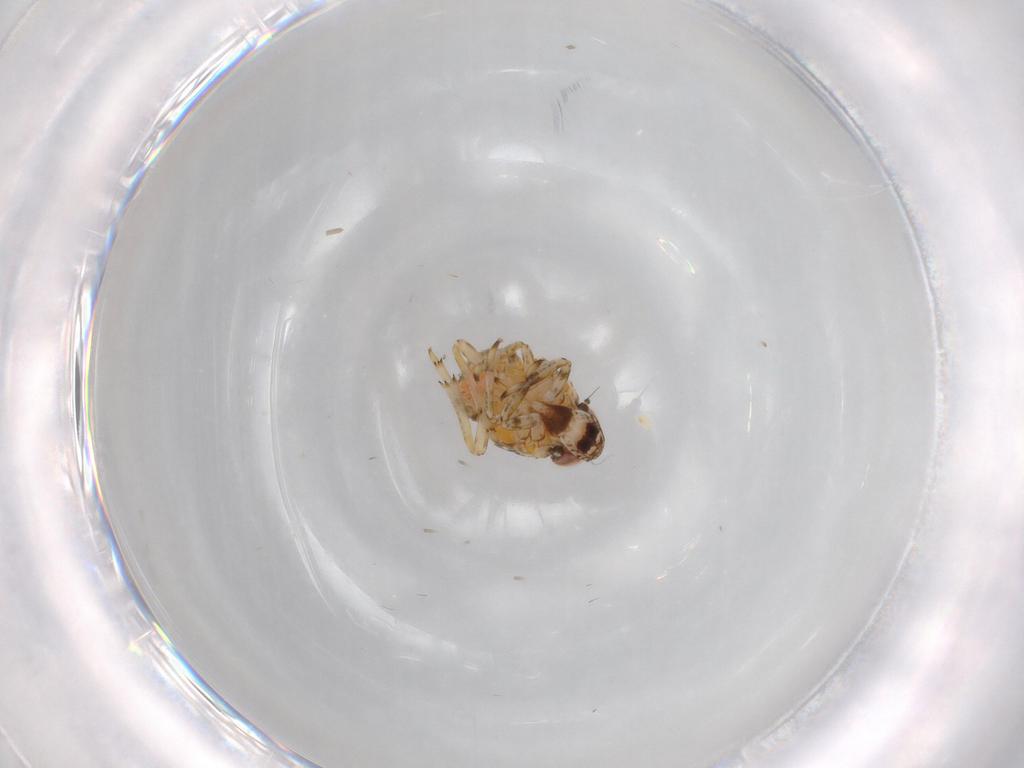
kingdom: Animalia
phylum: Arthropoda
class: Insecta
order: Hemiptera
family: Issidae
